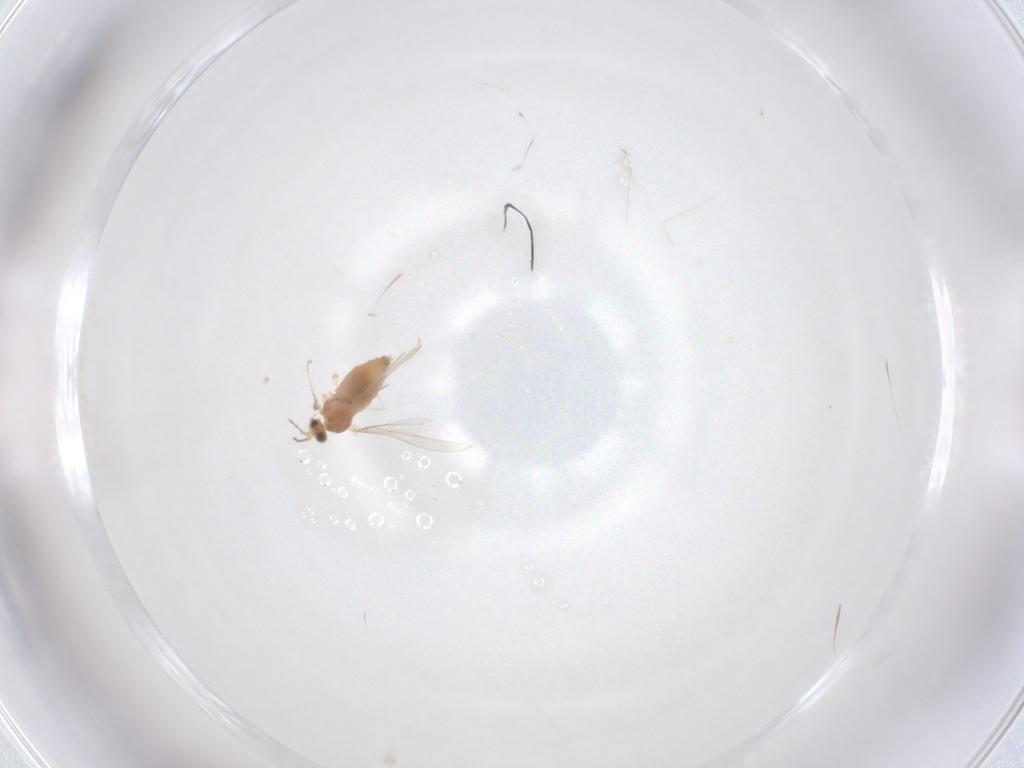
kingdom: Animalia
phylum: Arthropoda
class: Insecta
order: Diptera
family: Cecidomyiidae
